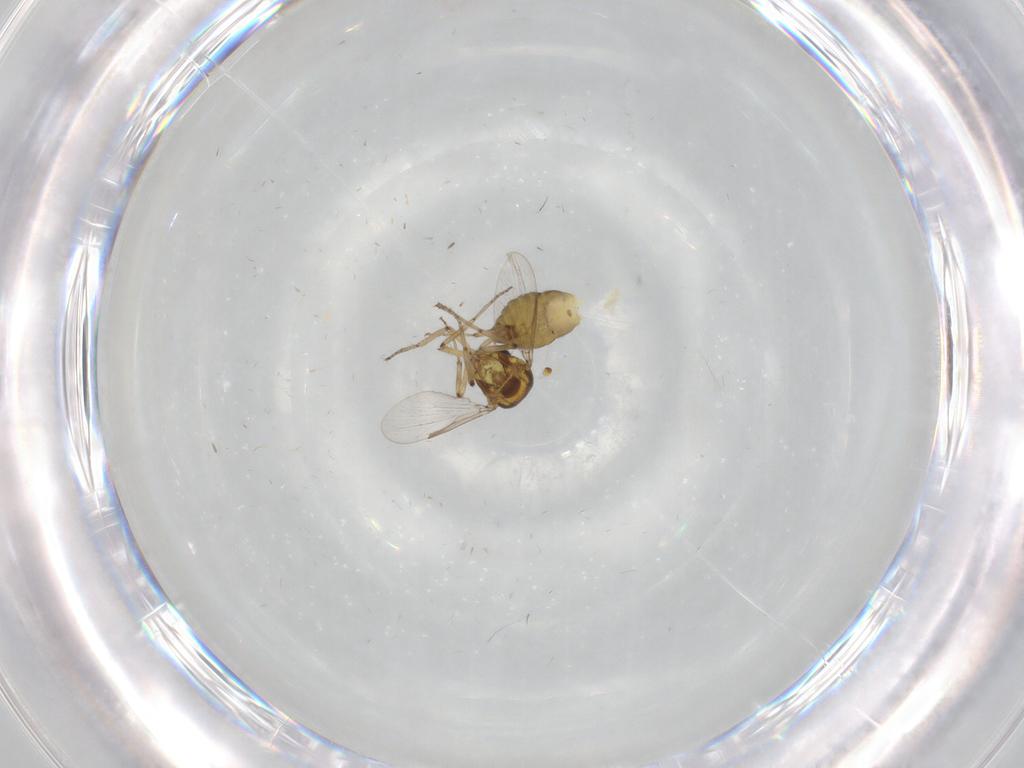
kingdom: Animalia
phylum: Arthropoda
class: Insecta
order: Diptera
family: Ceratopogonidae
